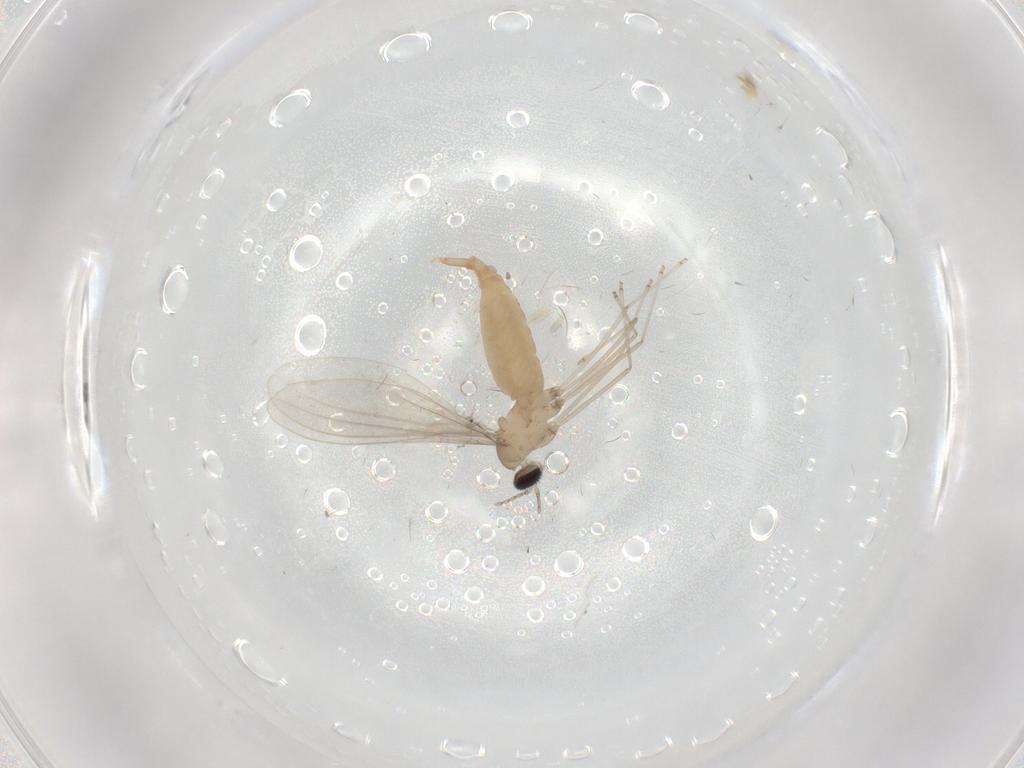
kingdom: Animalia
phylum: Arthropoda
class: Insecta
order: Diptera
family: Cecidomyiidae
